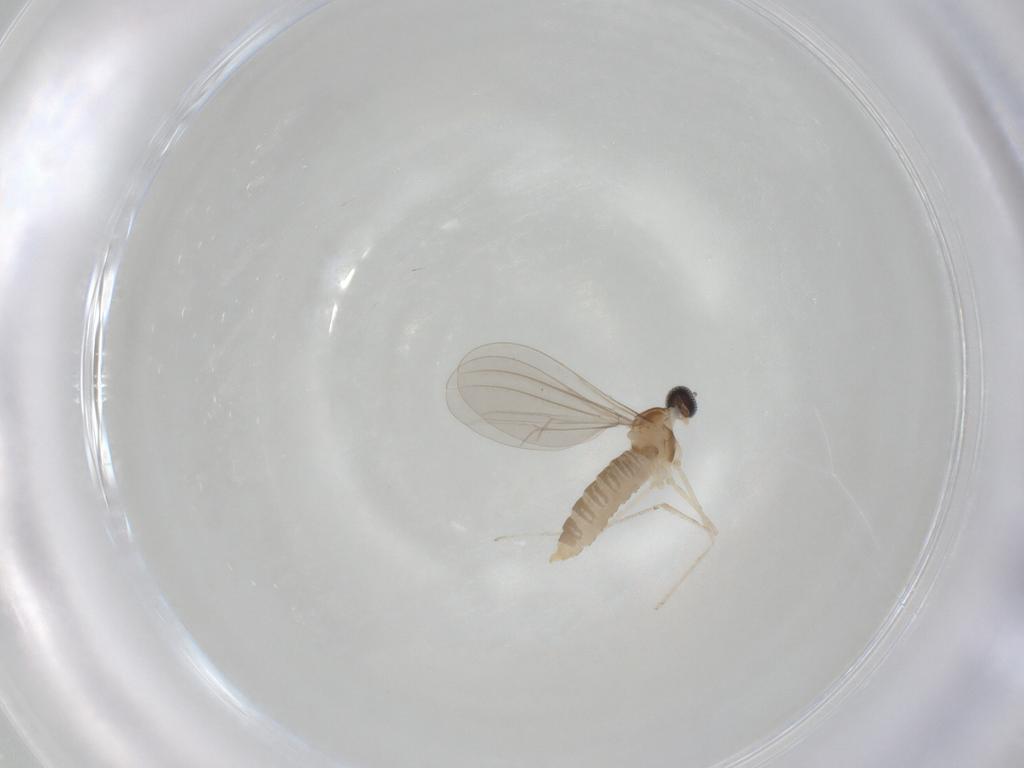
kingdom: Animalia
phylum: Arthropoda
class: Insecta
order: Diptera
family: Cecidomyiidae
